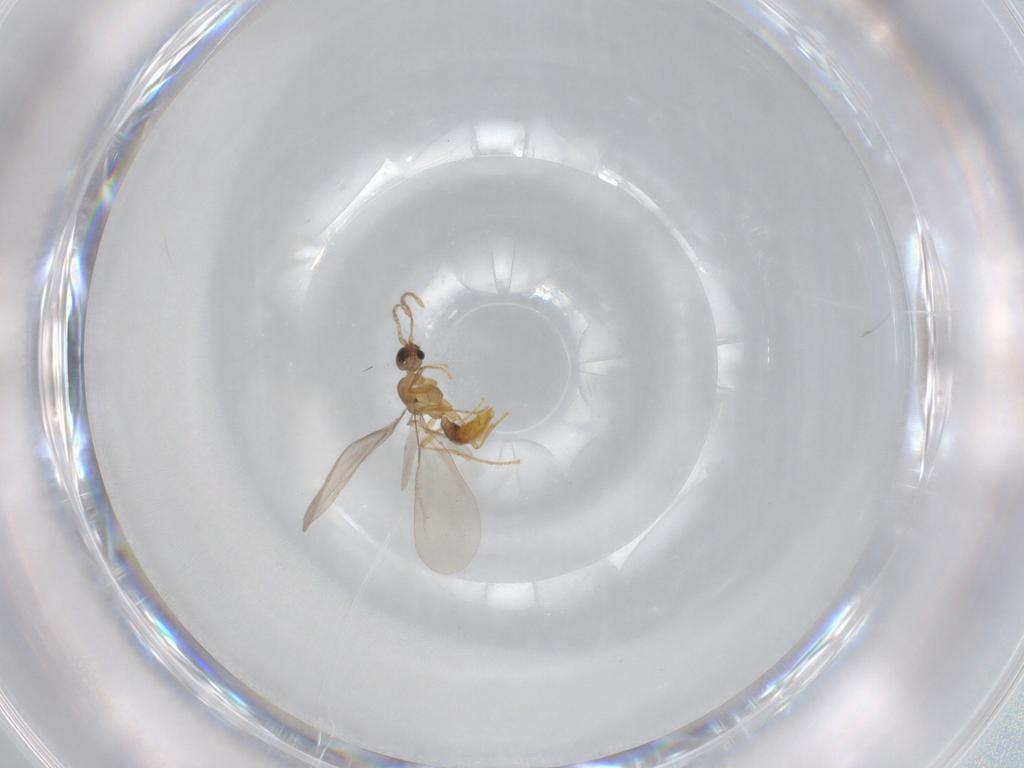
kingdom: Animalia
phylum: Arthropoda
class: Insecta
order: Hymenoptera
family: Formicidae
